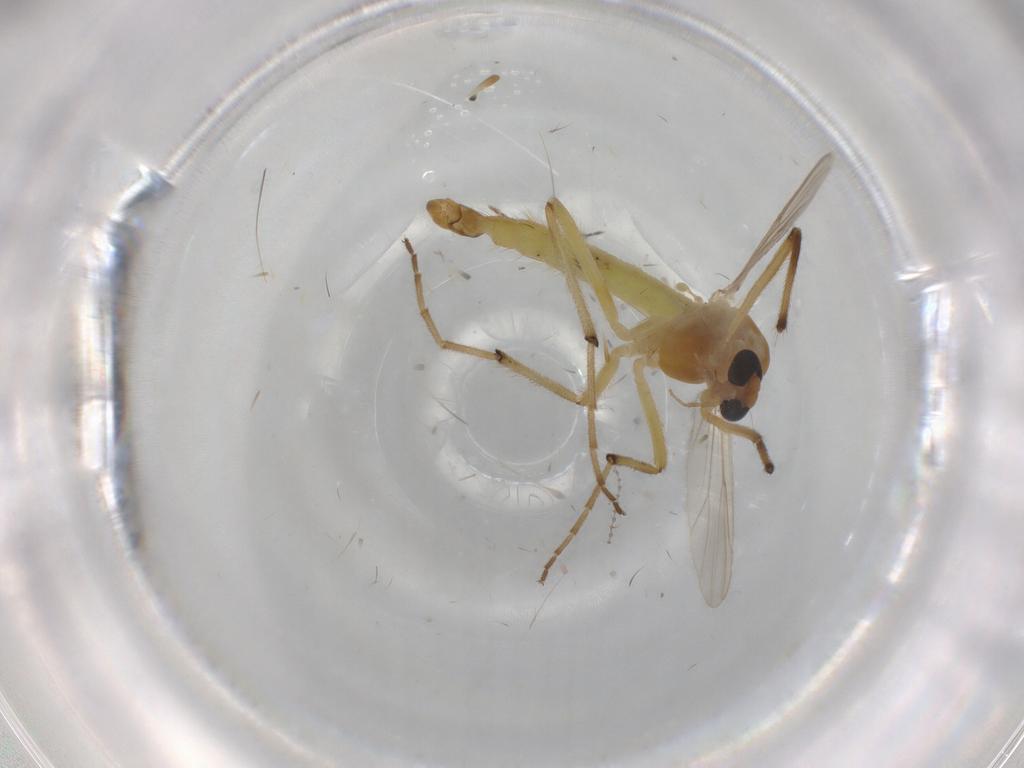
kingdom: Animalia
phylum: Arthropoda
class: Insecta
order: Diptera
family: Chironomidae
